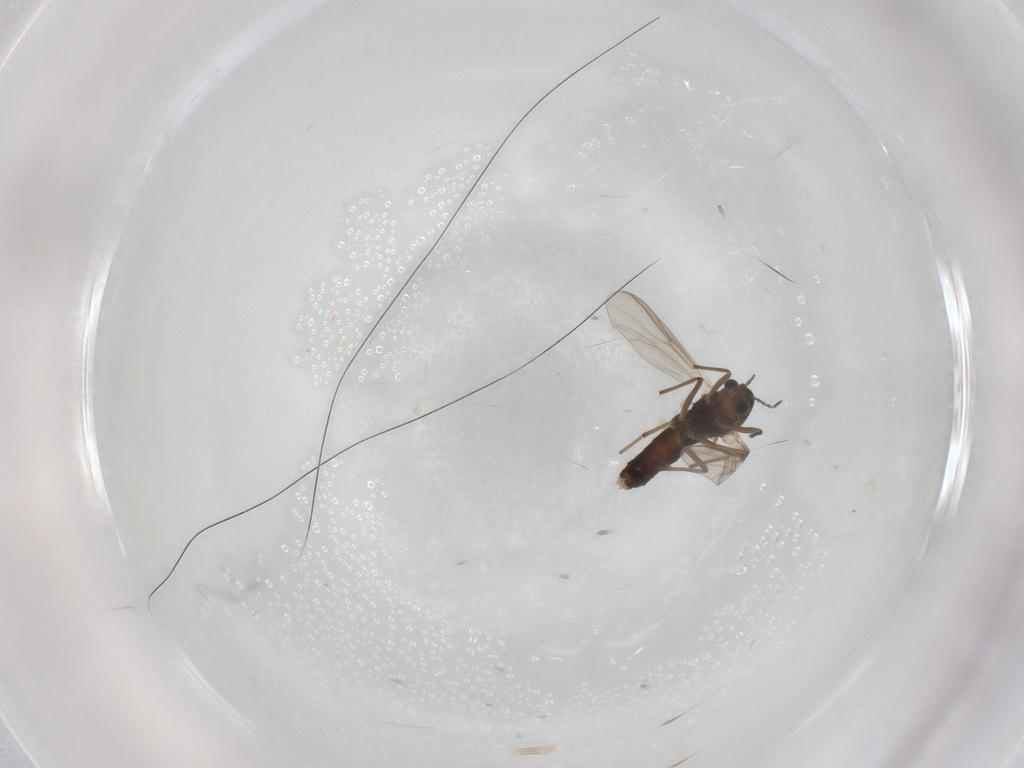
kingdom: Animalia
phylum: Arthropoda
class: Insecta
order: Diptera
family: Chironomidae
